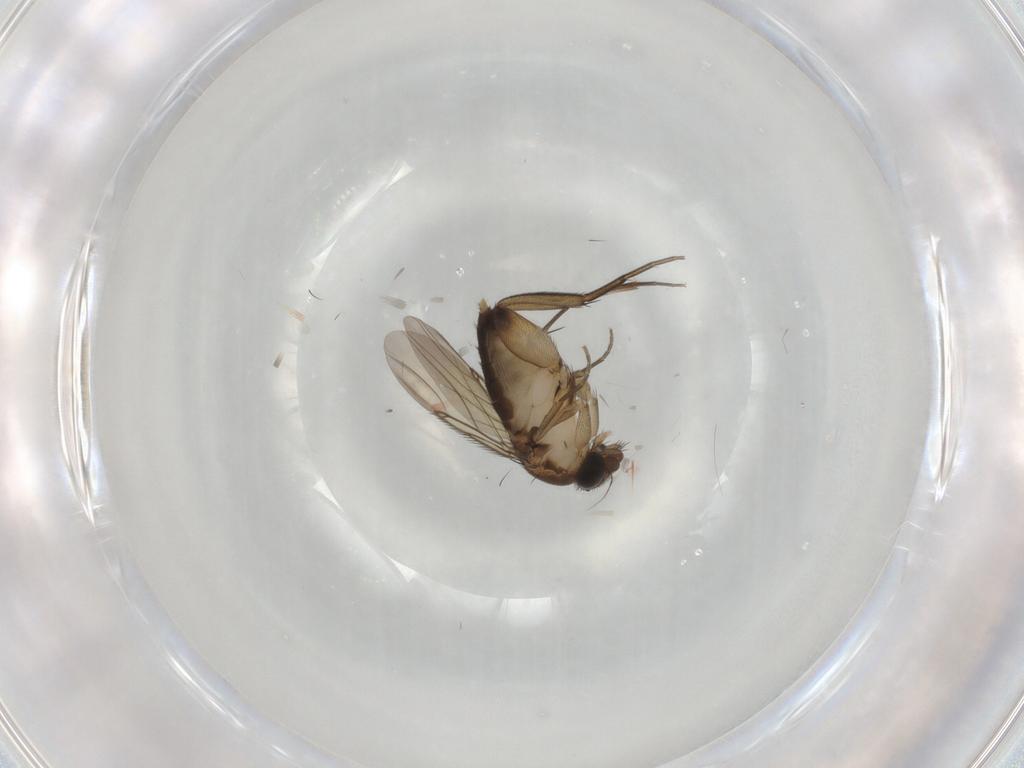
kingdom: Animalia
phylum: Arthropoda
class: Insecta
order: Diptera
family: Phoridae
